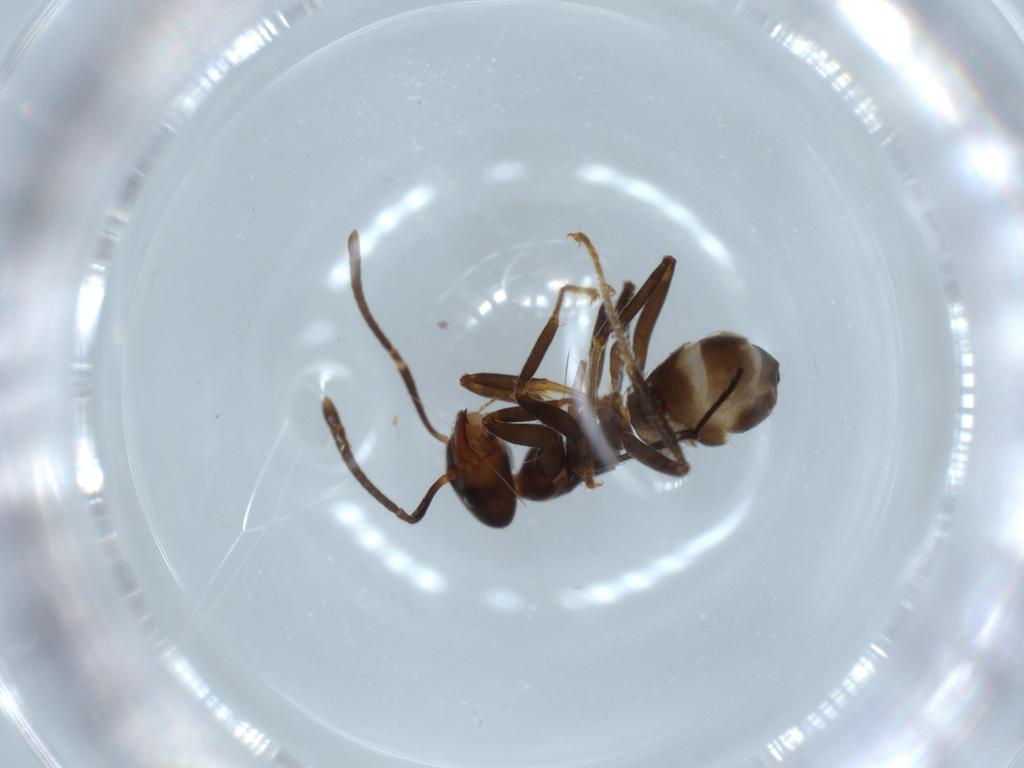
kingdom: Animalia
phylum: Arthropoda
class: Insecta
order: Hymenoptera
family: Formicidae
